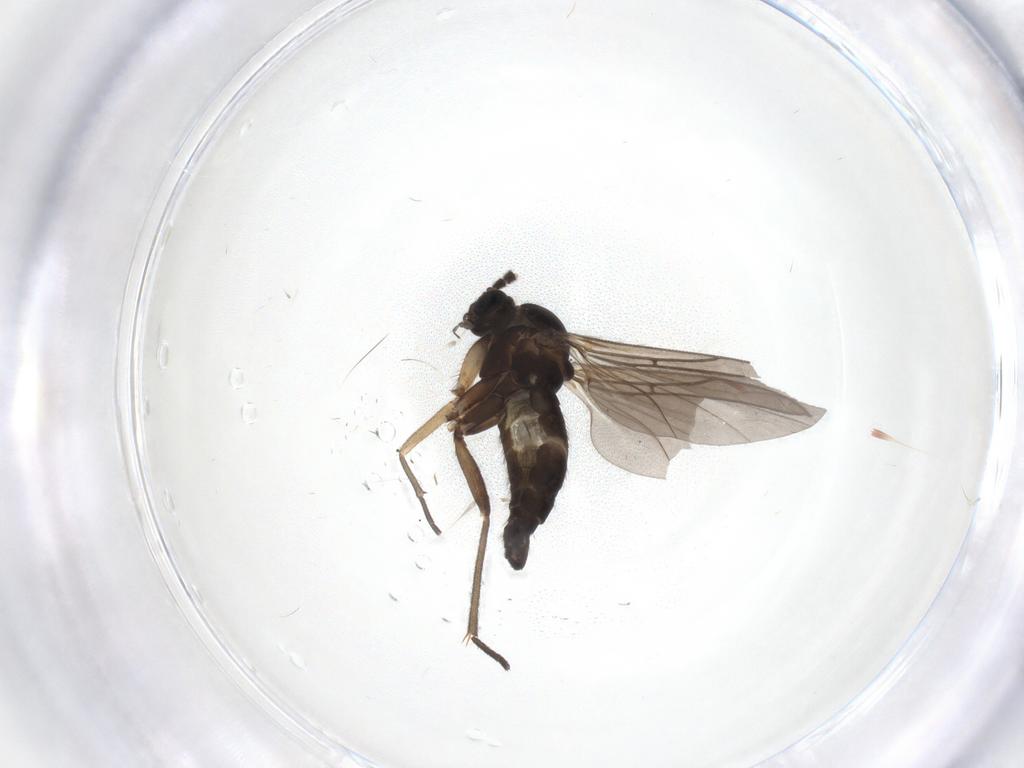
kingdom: Animalia
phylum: Arthropoda
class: Insecta
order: Diptera
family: Sciaridae
